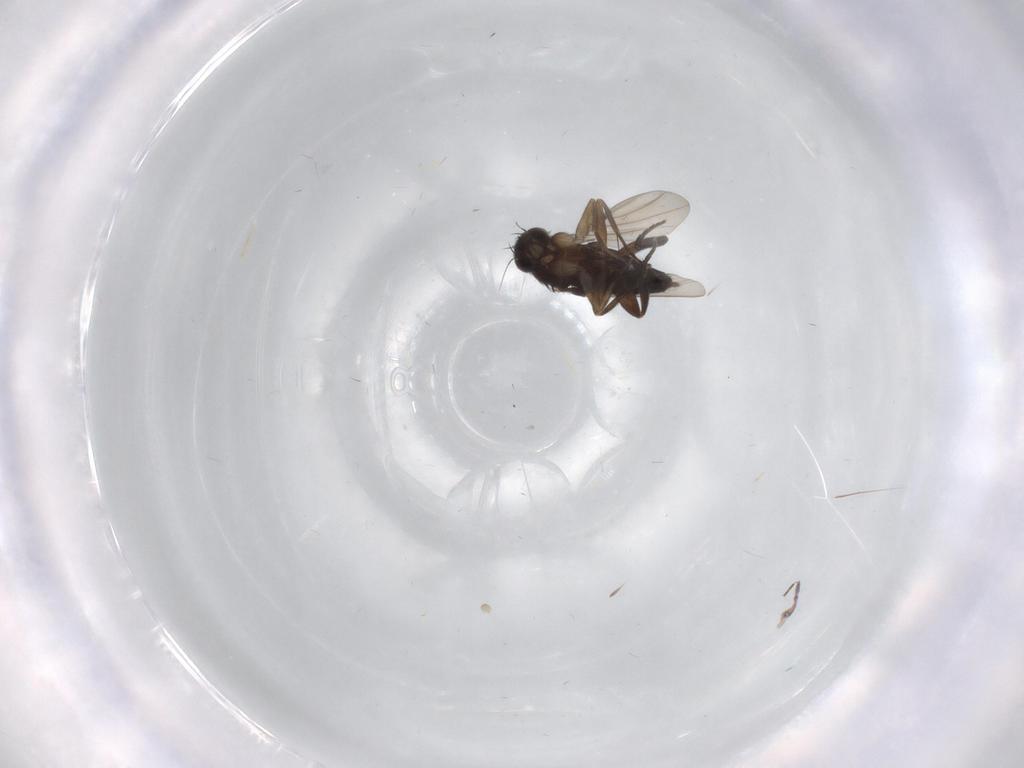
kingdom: Animalia
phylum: Arthropoda
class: Insecta
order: Diptera
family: Phoridae
